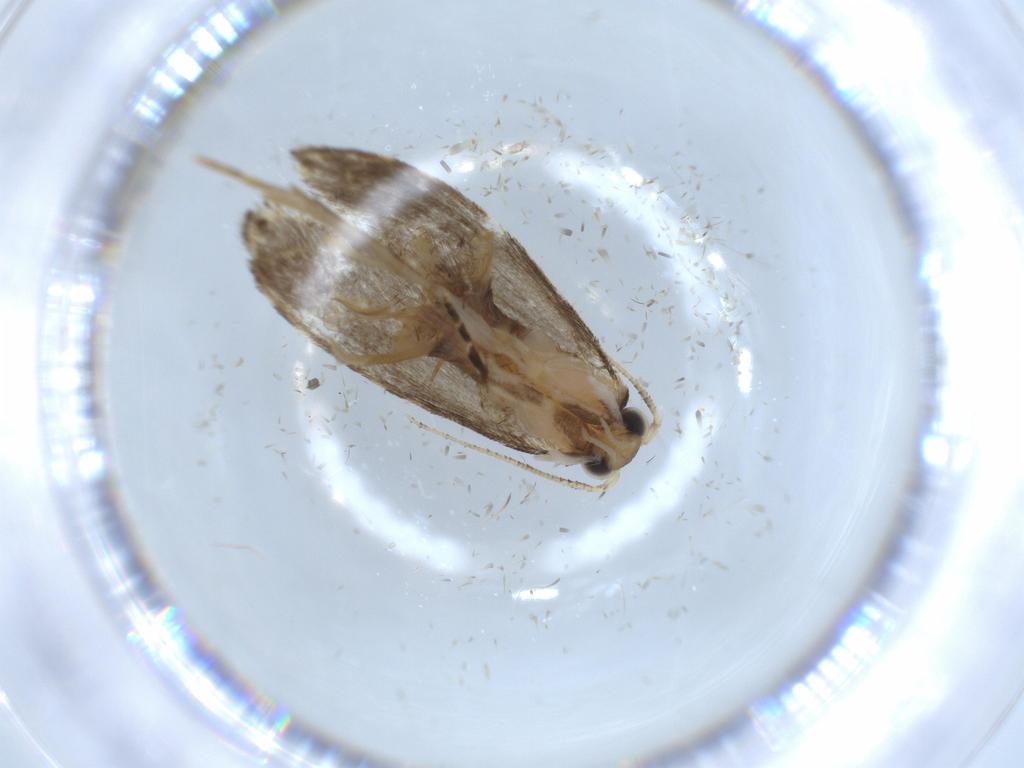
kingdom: Animalia
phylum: Arthropoda
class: Insecta
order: Lepidoptera
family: Tineidae
